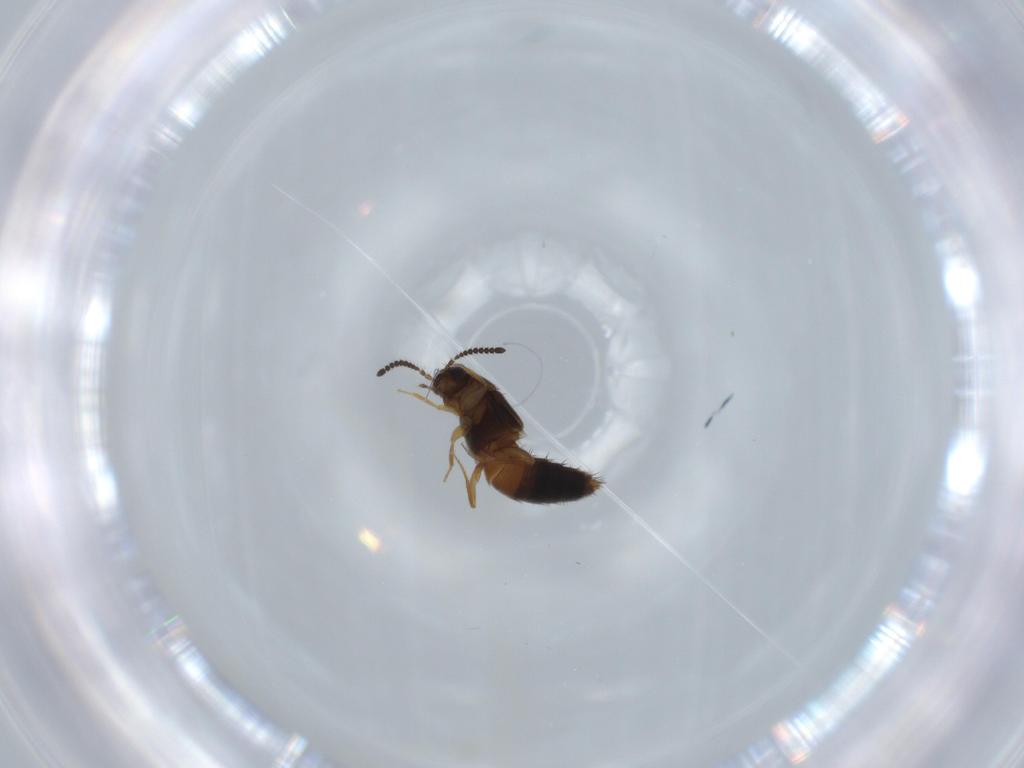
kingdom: Animalia
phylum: Arthropoda
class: Insecta
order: Coleoptera
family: Staphylinidae
